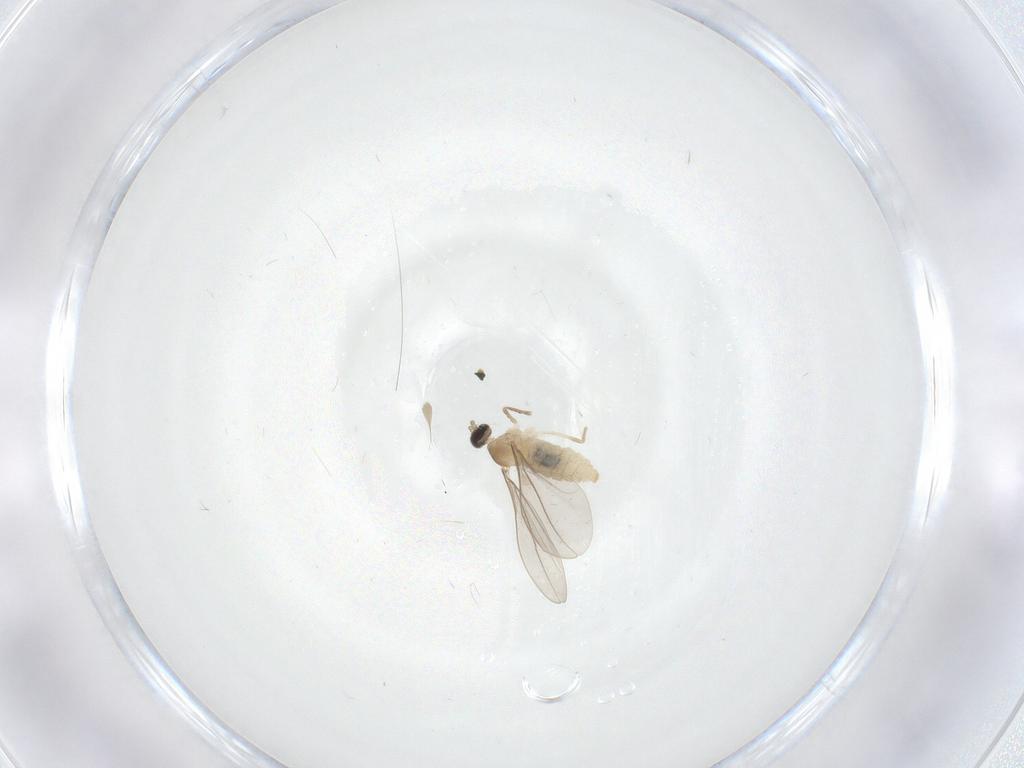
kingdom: Animalia
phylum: Arthropoda
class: Insecta
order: Diptera
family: Cecidomyiidae
